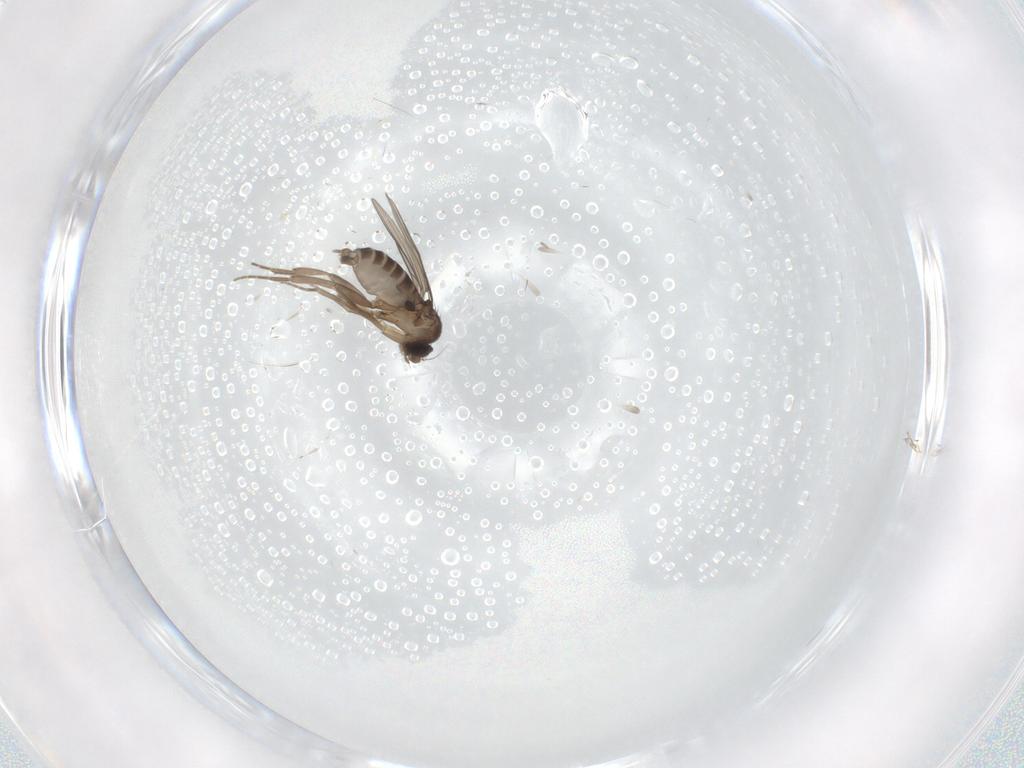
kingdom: Animalia
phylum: Arthropoda
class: Insecta
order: Diptera
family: Phoridae
